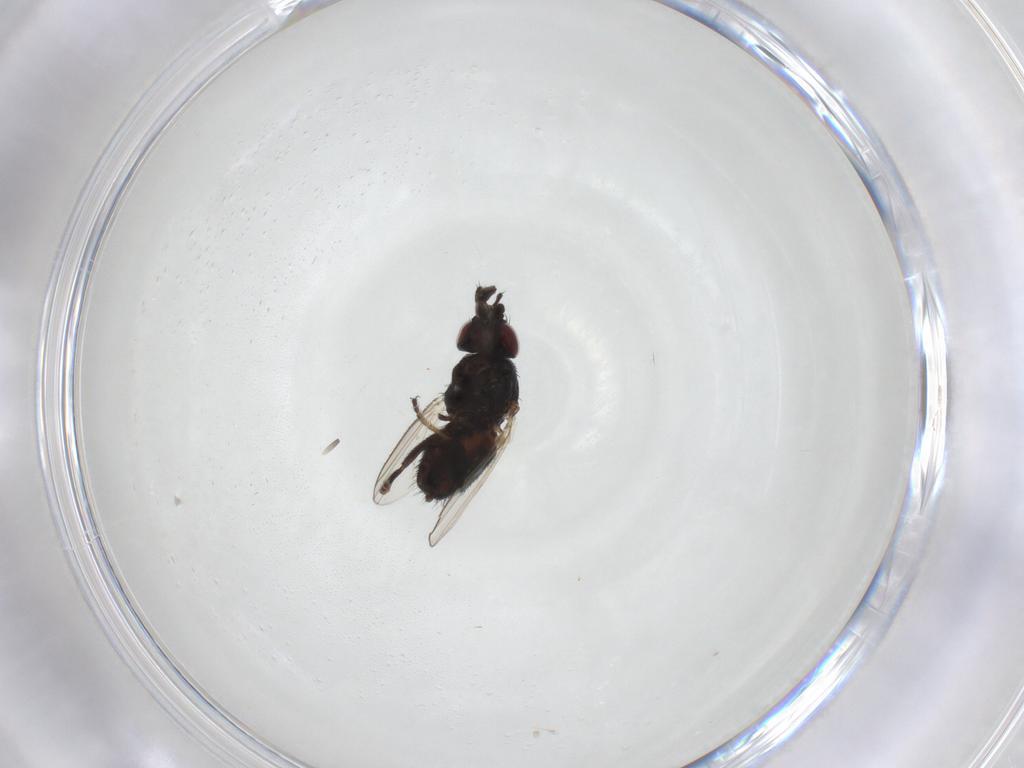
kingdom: Animalia
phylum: Arthropoda
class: Insecta
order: Diptera
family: Milichiidae
